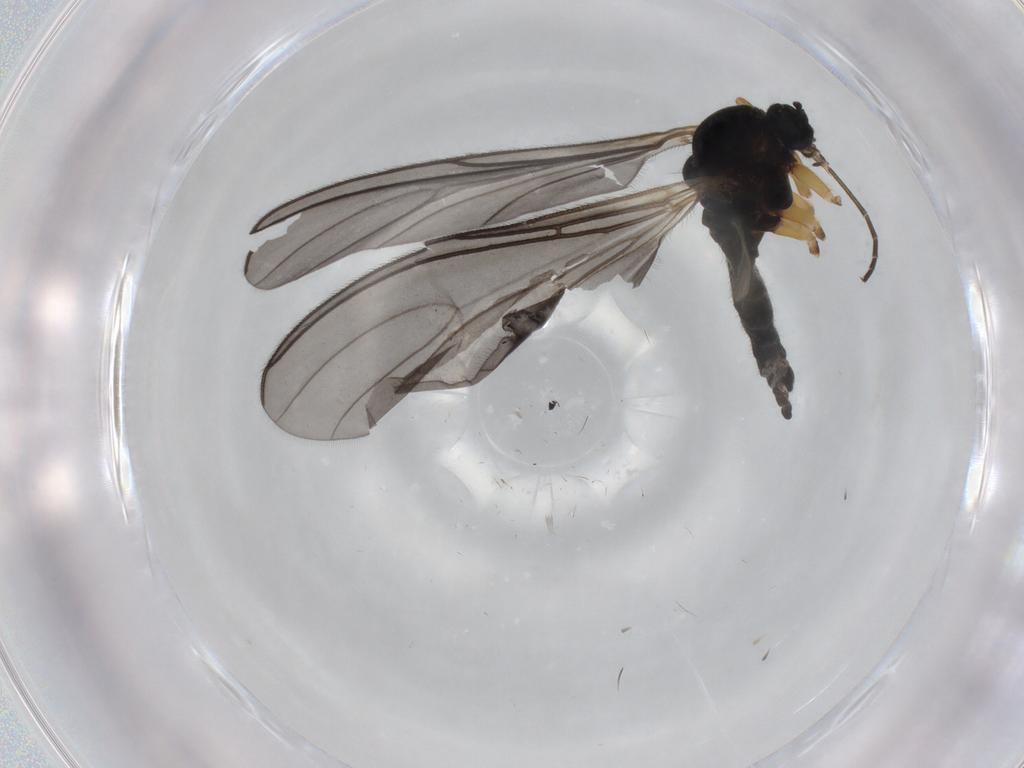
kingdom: Animalia
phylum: Arthropoda
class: Insecta
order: Diptera
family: Sciaridae
